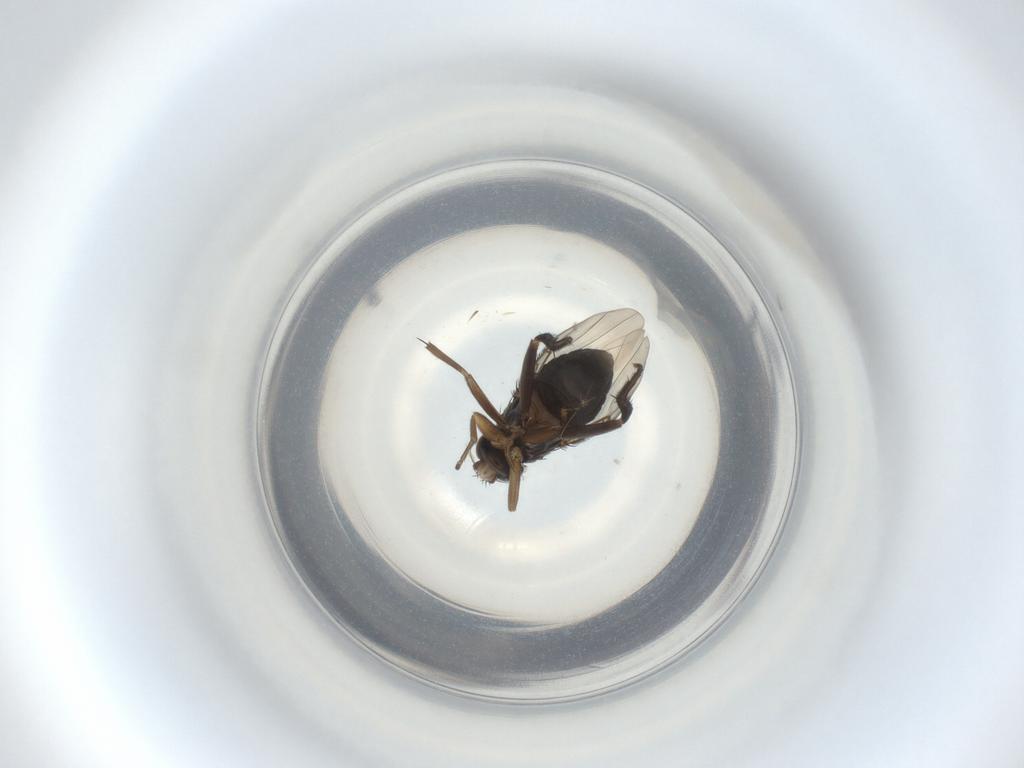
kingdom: Animalia
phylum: Arthropoda
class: Insecta
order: Diptera
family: Phoridae
